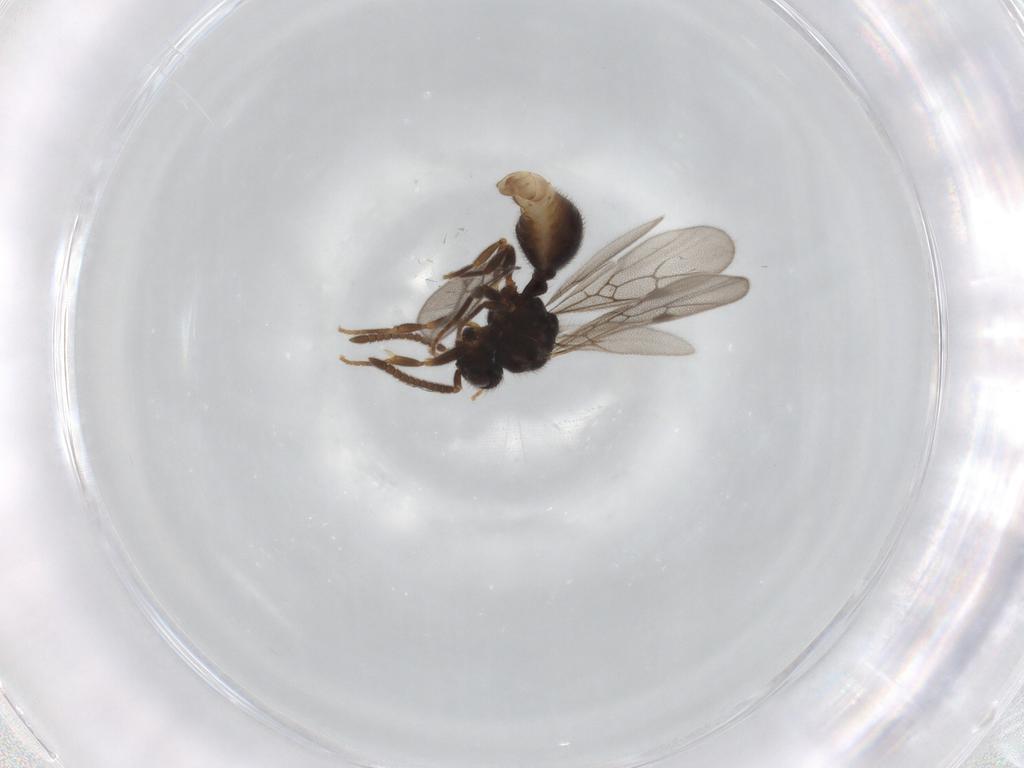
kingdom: Animalia
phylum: Arthropoda
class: Insecta
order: Hymenoptera
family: Formicidae
